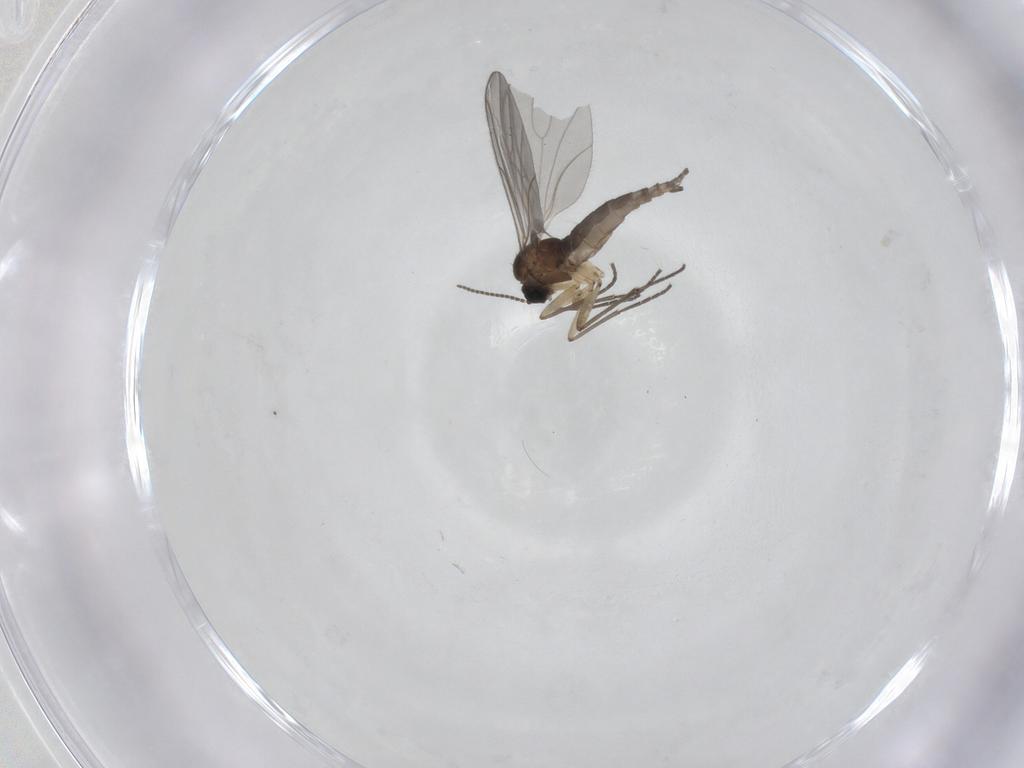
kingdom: Animalia
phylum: Arthropoda
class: Insecta
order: Diptera
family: Sciaridae
